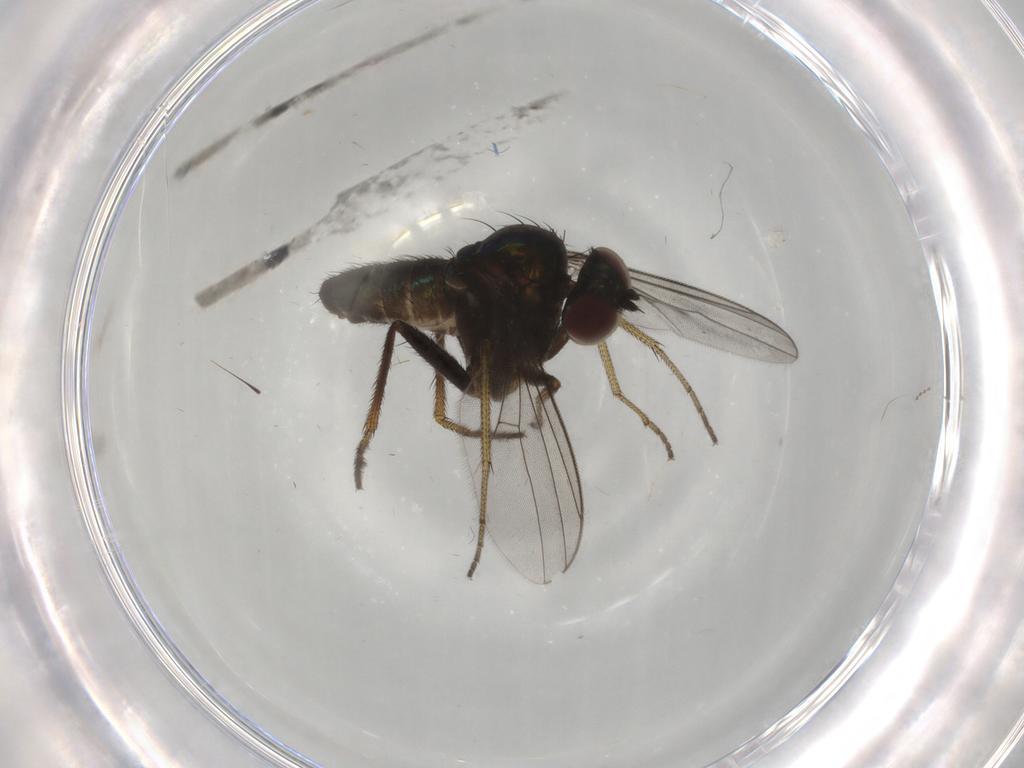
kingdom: Animalia
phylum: Arthropoda
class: Insecta
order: Diptera
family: Dolichopodidae
